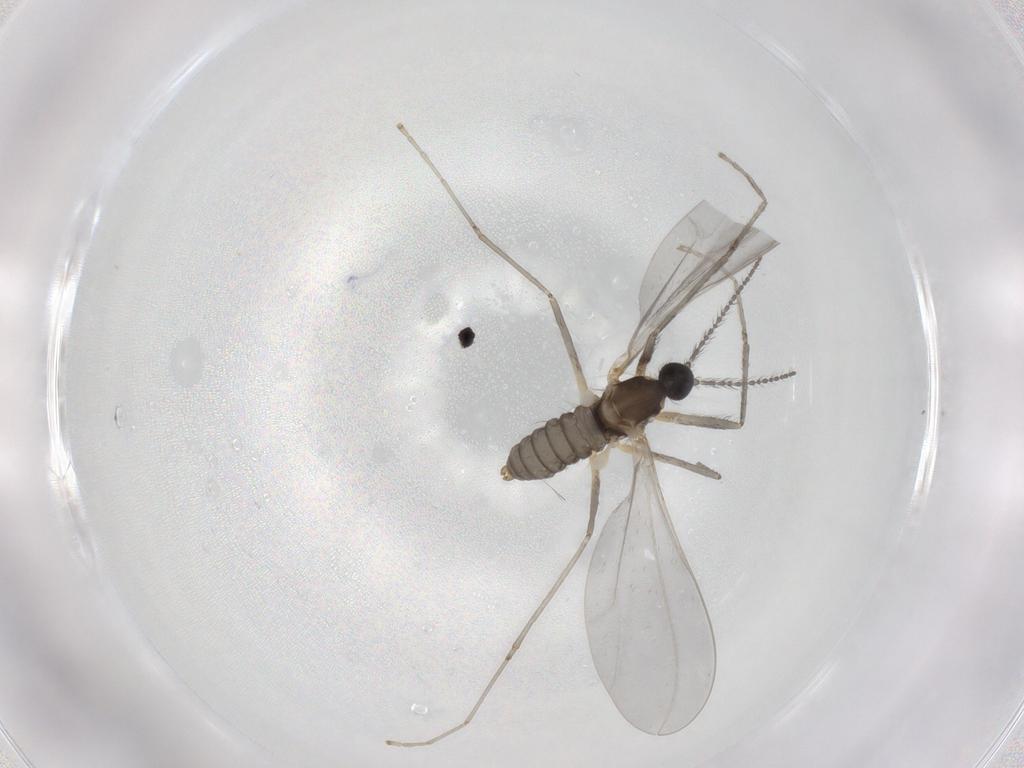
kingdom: Animalia
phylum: Arthropoda
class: Insecta
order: Diptera
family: Cecidomyiidae
